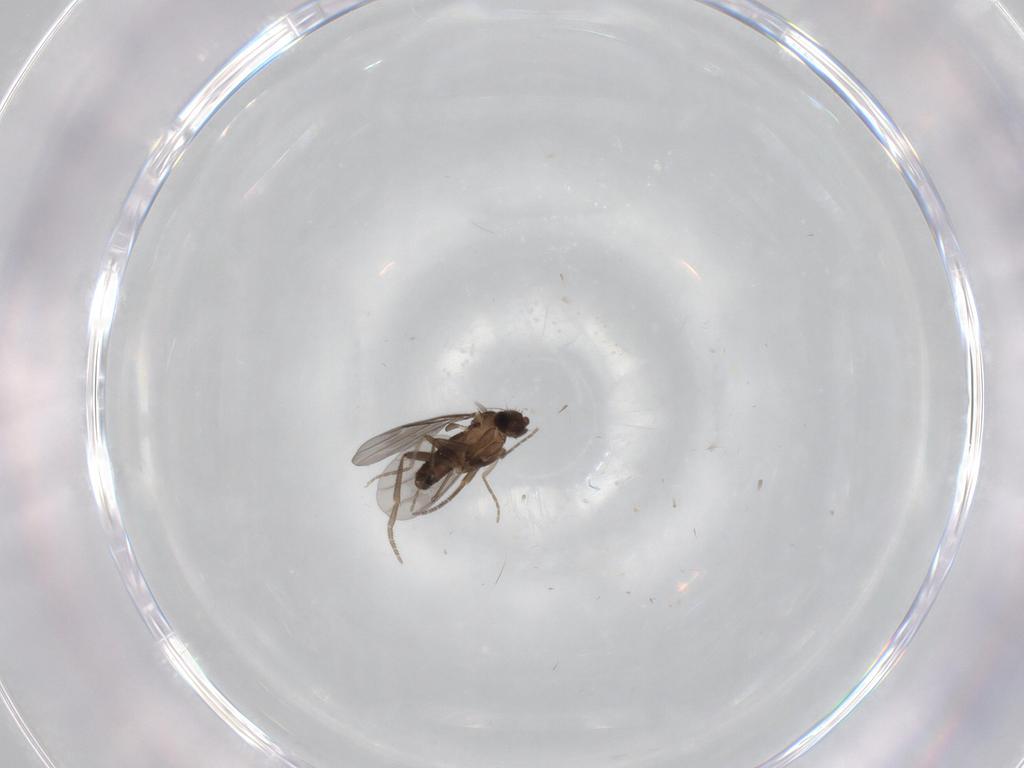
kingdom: Animalia
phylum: Arthropoda
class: Insecta
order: Diptera
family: Phoridae
